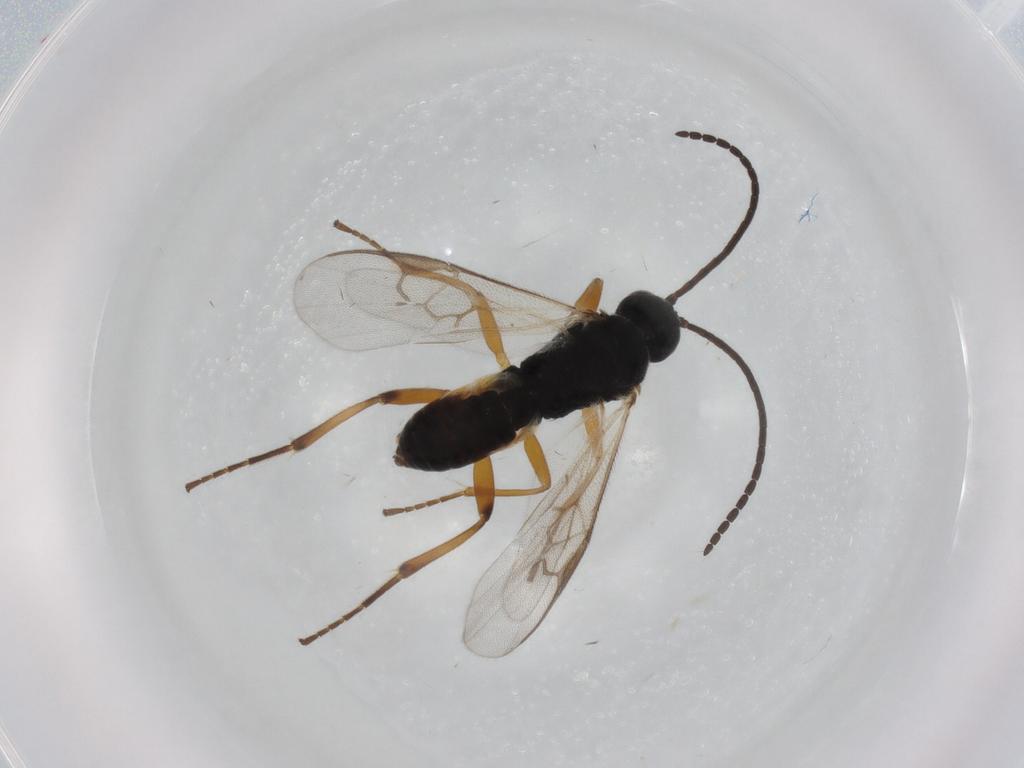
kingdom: Animalia
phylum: Arthropoda
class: Insecta
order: Hymenoptera
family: Braconidae
